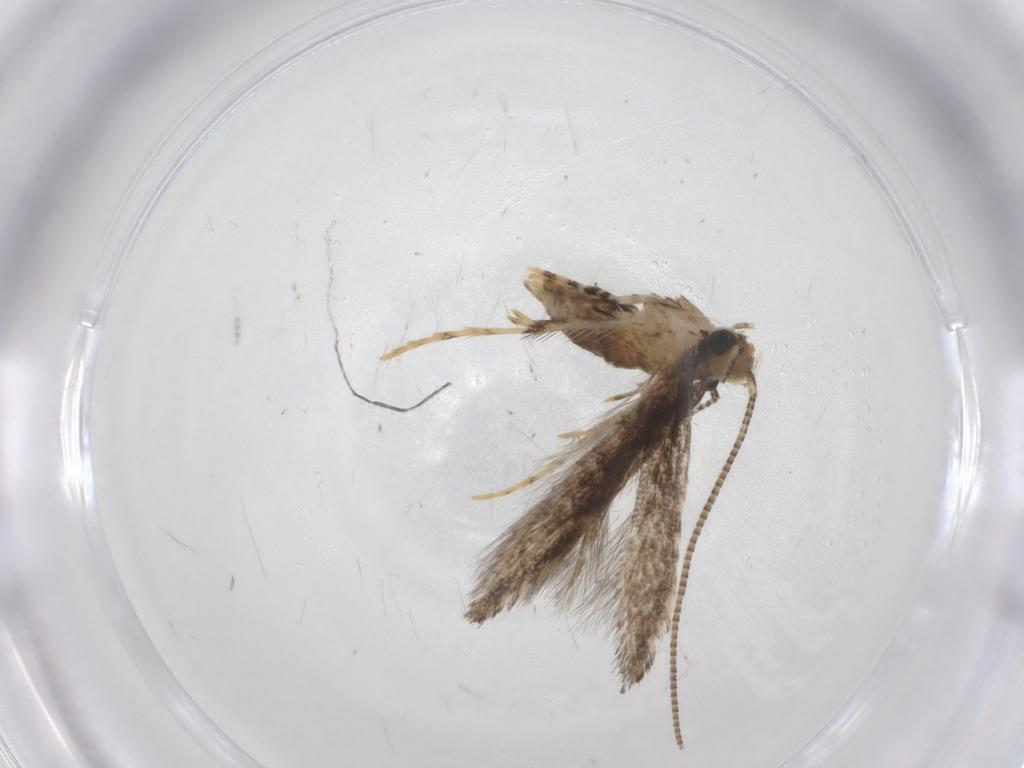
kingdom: Animalia
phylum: Arthropoda
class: Insecta
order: Lepidoptera
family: Gracillariidae
